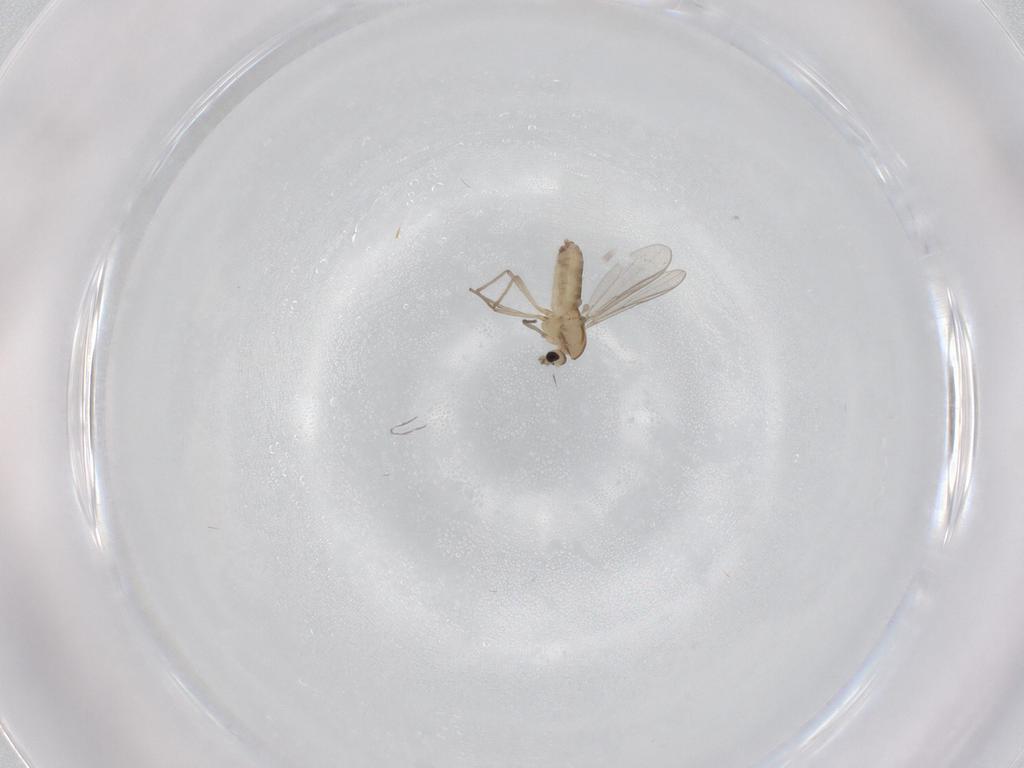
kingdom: Animalia
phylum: Arthropoda
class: Insecta
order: Diptera
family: Chironomidae
